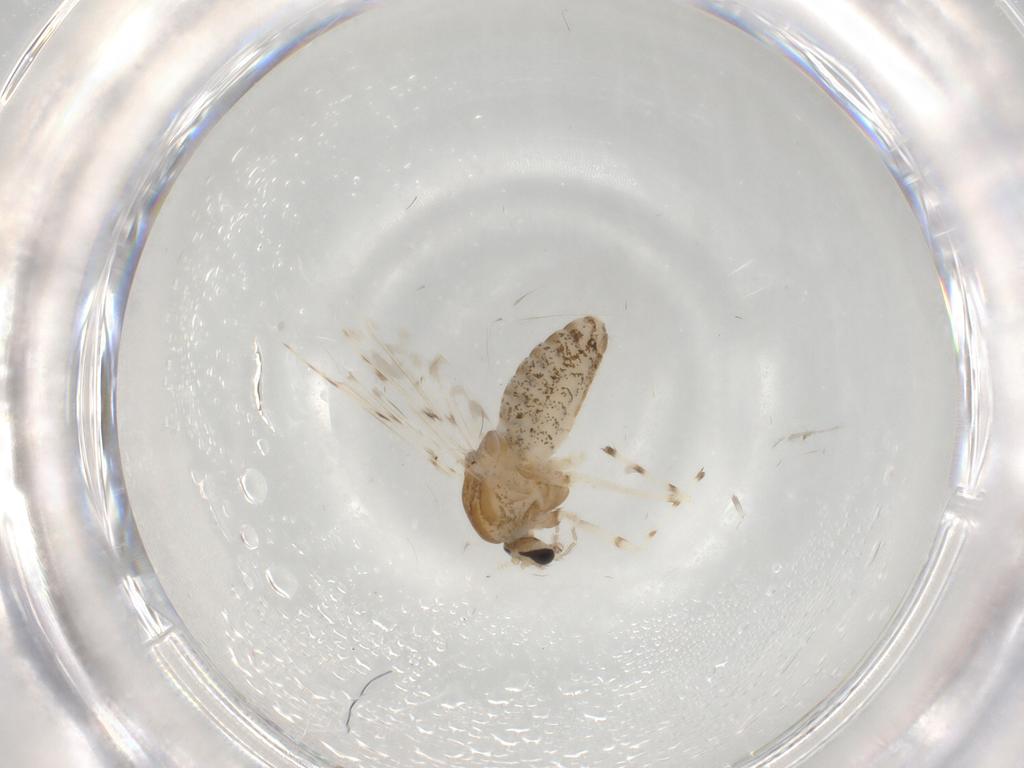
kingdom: Animalia
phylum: Arthropoda
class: Insecta
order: Diptera
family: Chironomidae
